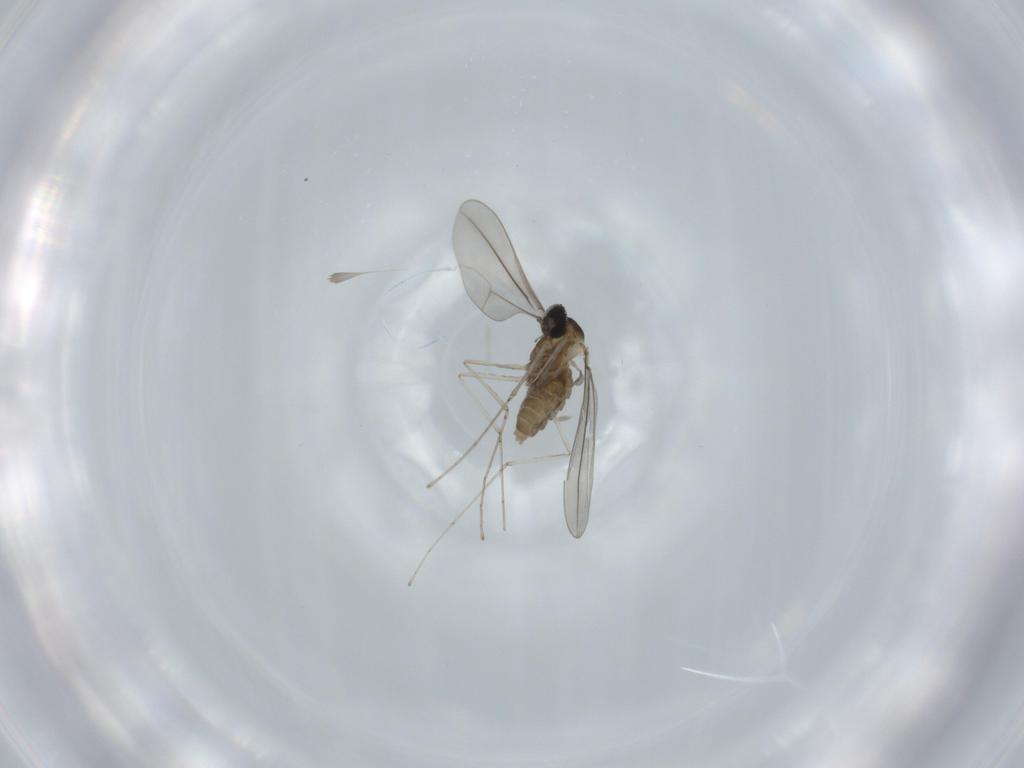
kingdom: Animalia
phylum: Arthropoda
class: Insecta
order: Diptera
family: Cecidomyiidae
